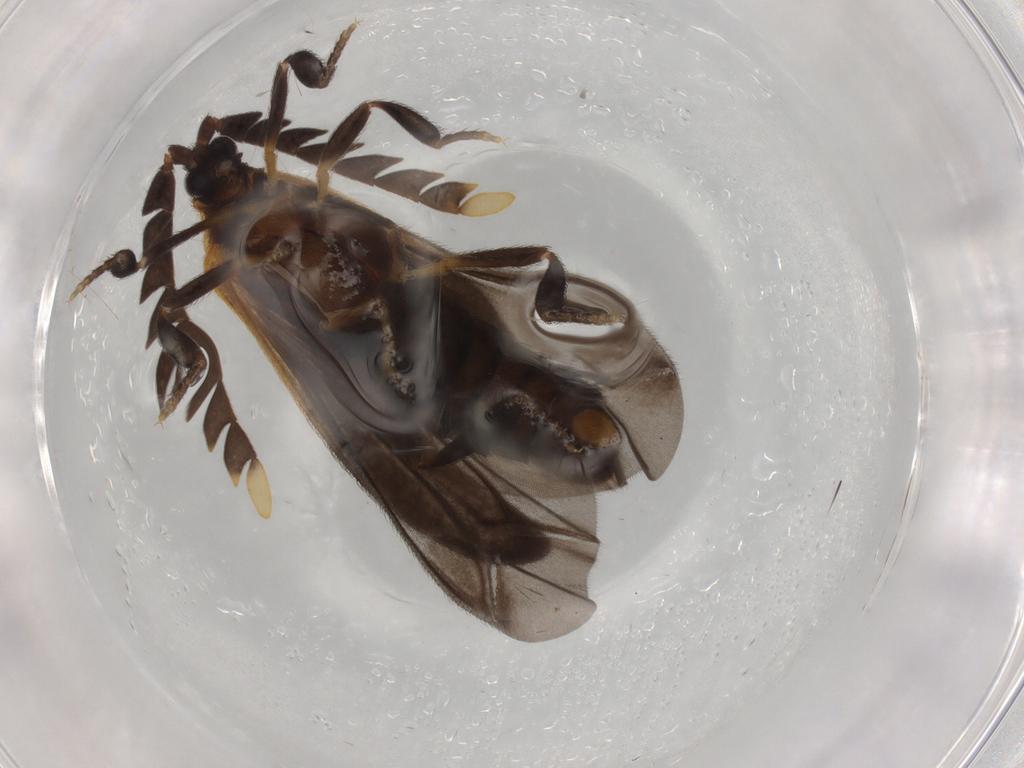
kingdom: Animalia
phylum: Arthropoda
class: Insecta
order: Coleoptera
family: Lycidae
